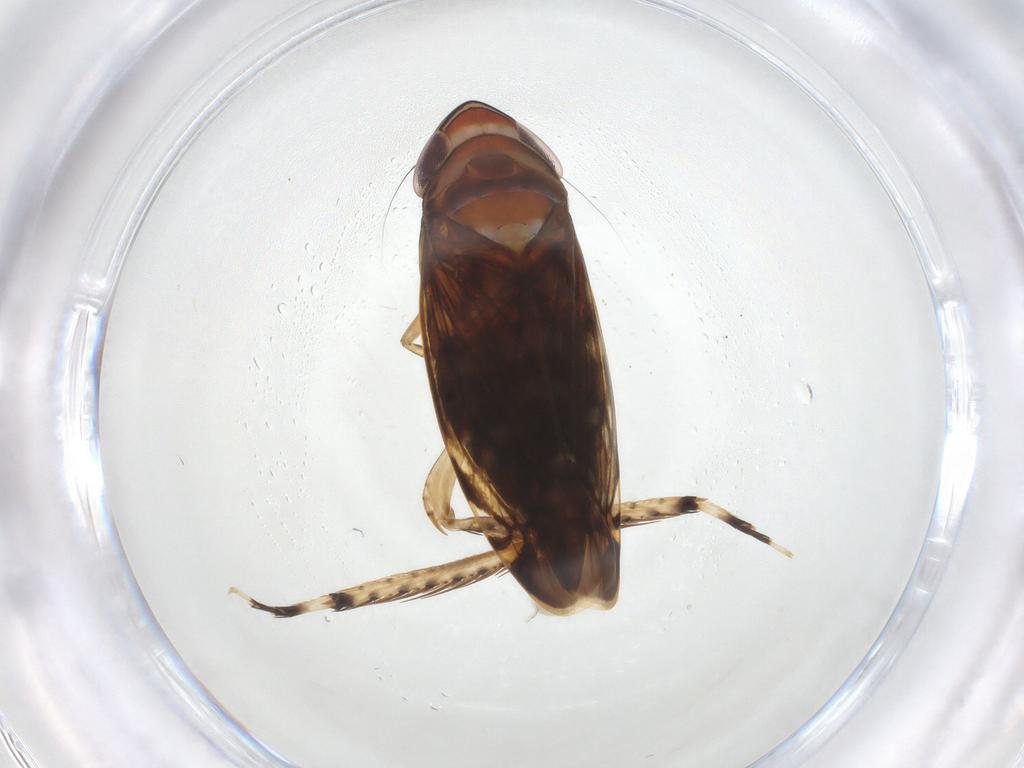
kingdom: Animalia
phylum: Arthropoda
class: Insecta
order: Hemiptera
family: Cicadellidae
